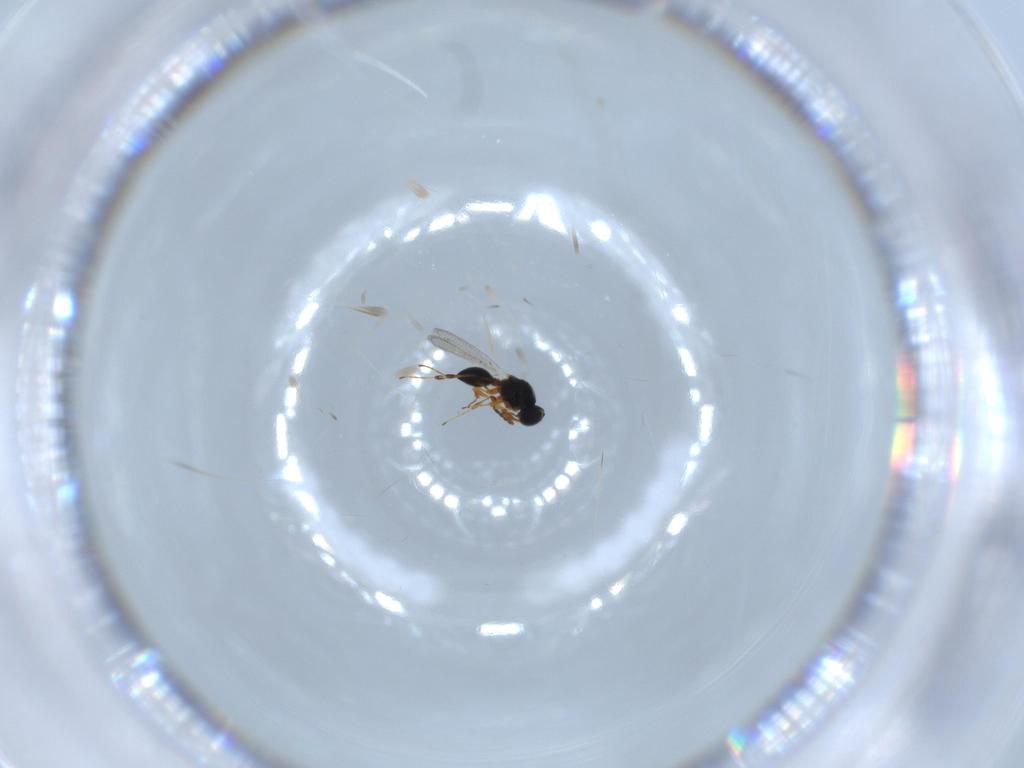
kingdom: Animalia
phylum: Arthropoda
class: Insecta
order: Hymenoptera
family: Platygastridae
